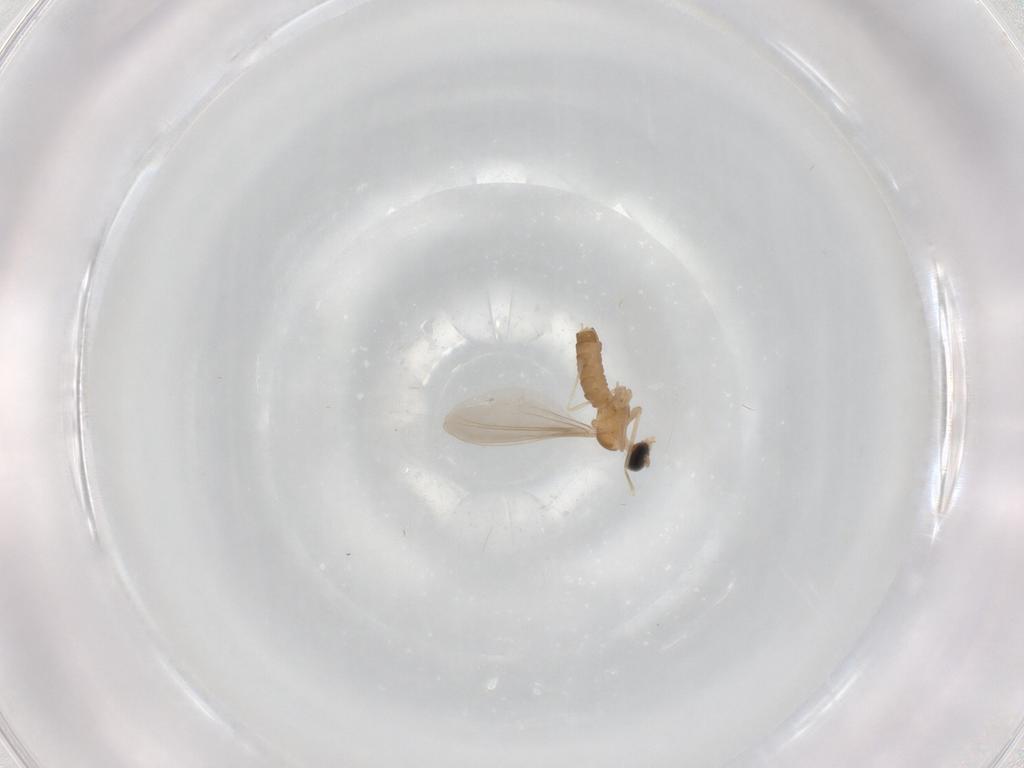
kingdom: Animalia
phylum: Arthropoda
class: Insecta
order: Diptera
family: Cecidomyiidae
